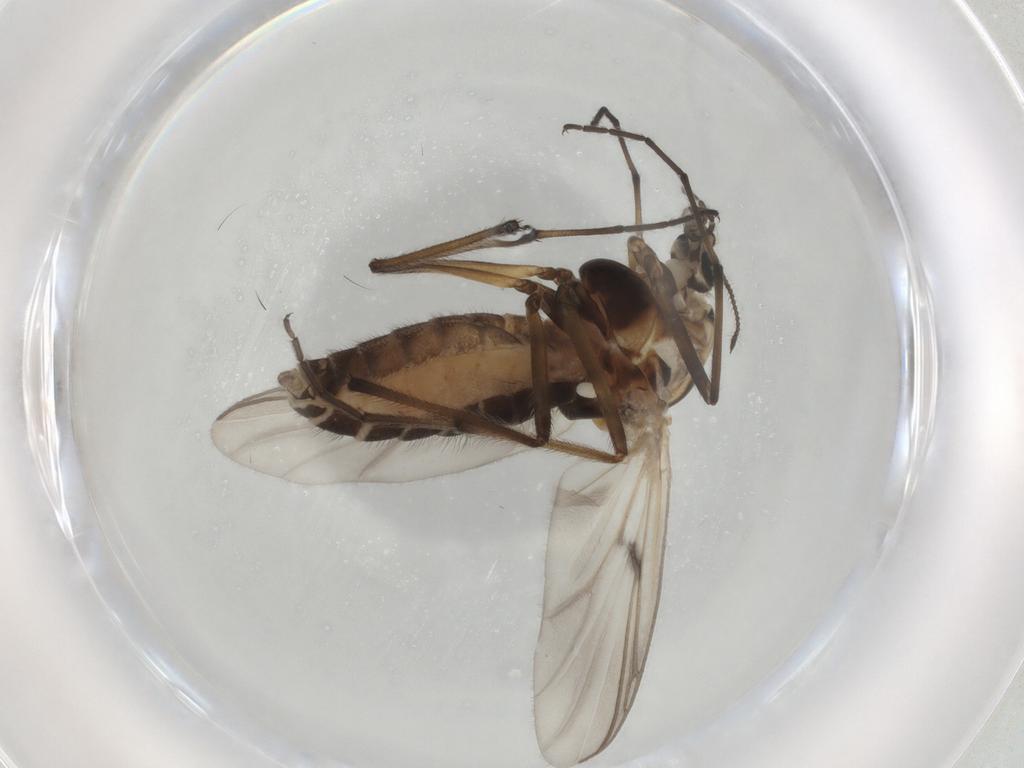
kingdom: Animalia
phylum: Arthropoda
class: Insecta
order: Diptera
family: Chironomidae
